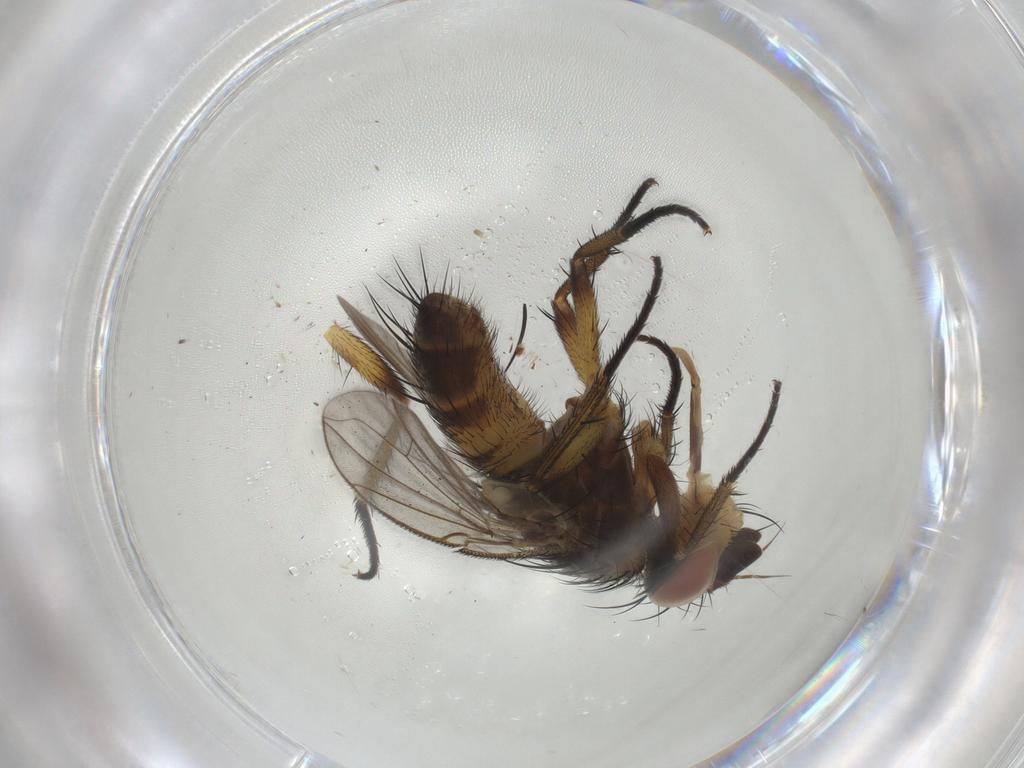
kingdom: Animalia
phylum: Arthropoda
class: Insecta
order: Diptera
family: Tachinidae
